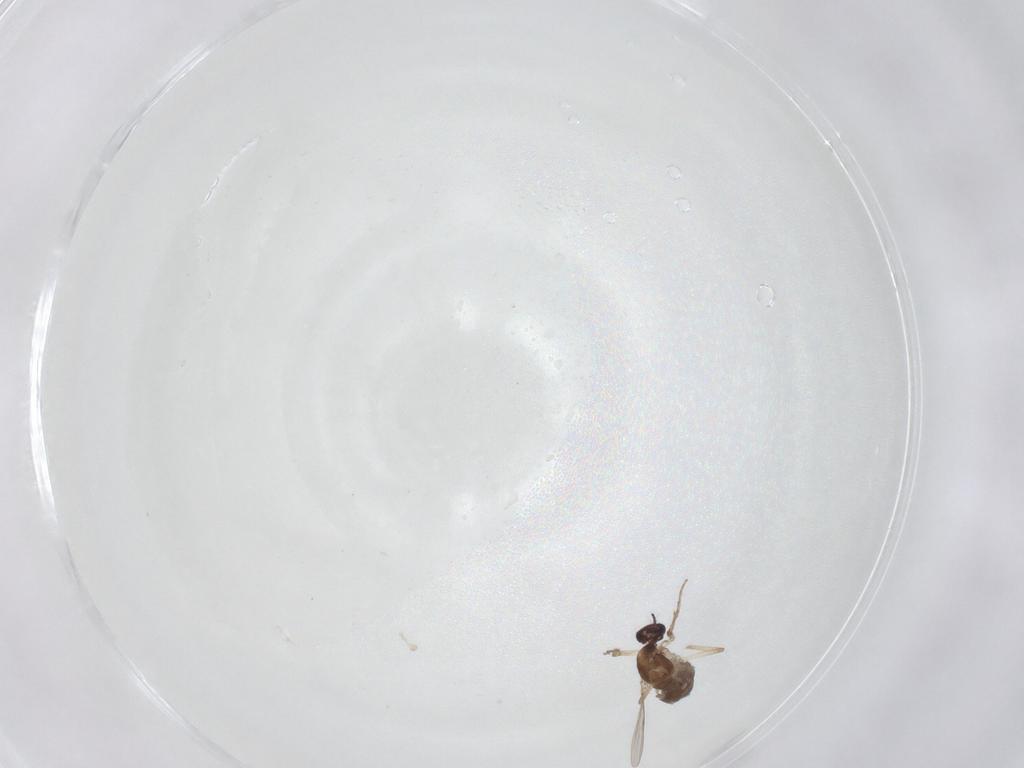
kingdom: Animalia
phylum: Arthropoda
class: Insecta
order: Diptera
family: Ceratopogonidae
